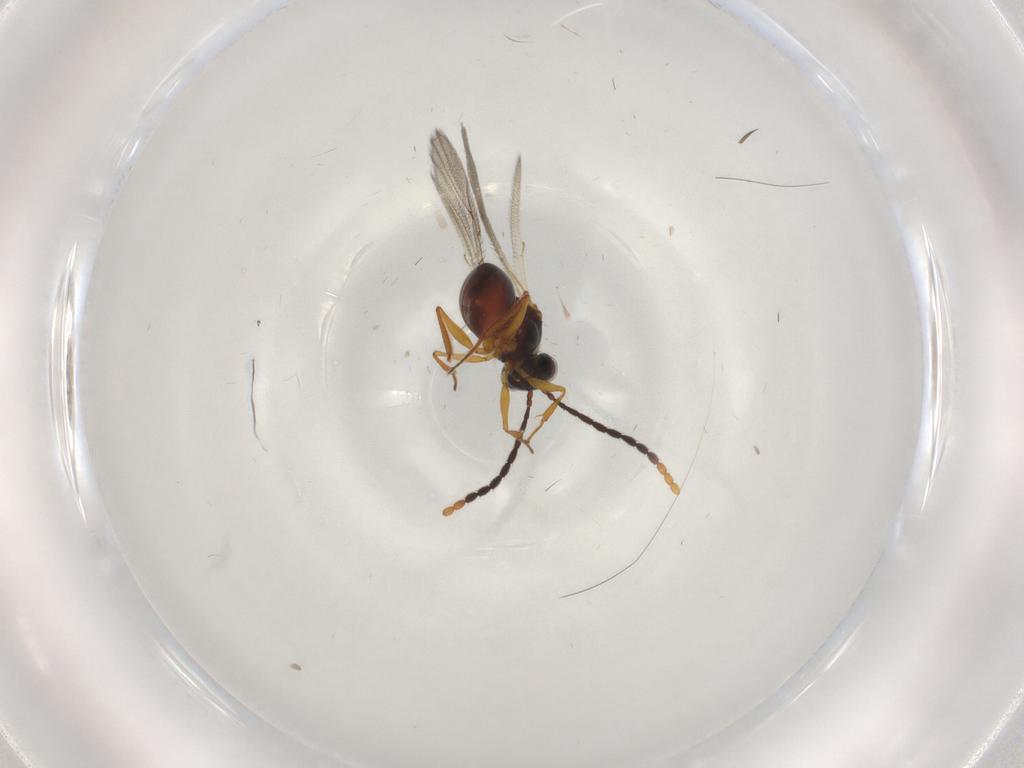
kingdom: Animalia
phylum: Arthropoda
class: Insecta
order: Hymenoptera
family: Figitidae
